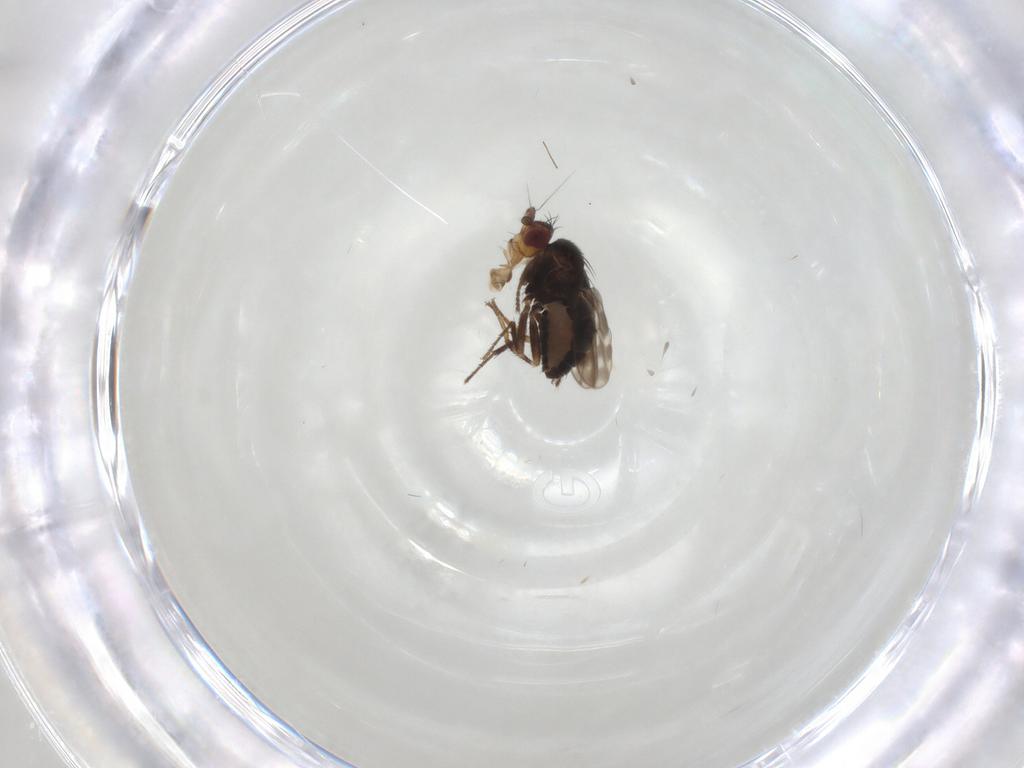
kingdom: Animalia
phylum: Arthropoda
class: Insecta
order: Diptera
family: Sphaeroceridae
